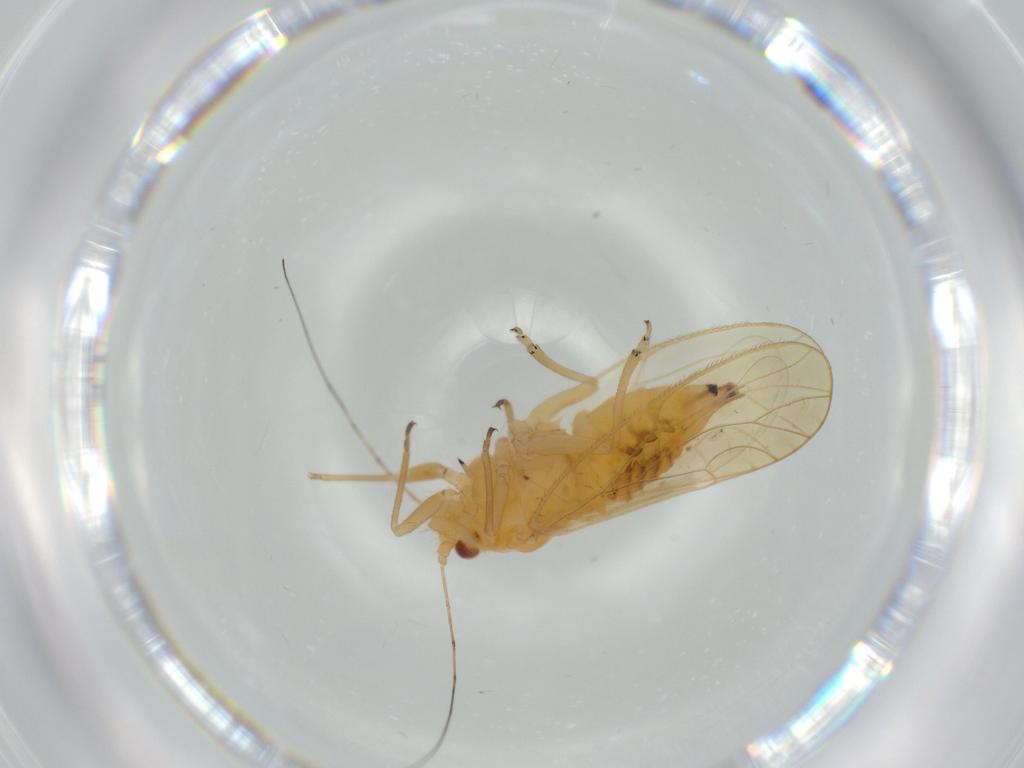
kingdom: Animalia
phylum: Arthropoda
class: Insecta
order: Hemiptera
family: Psyllidae
